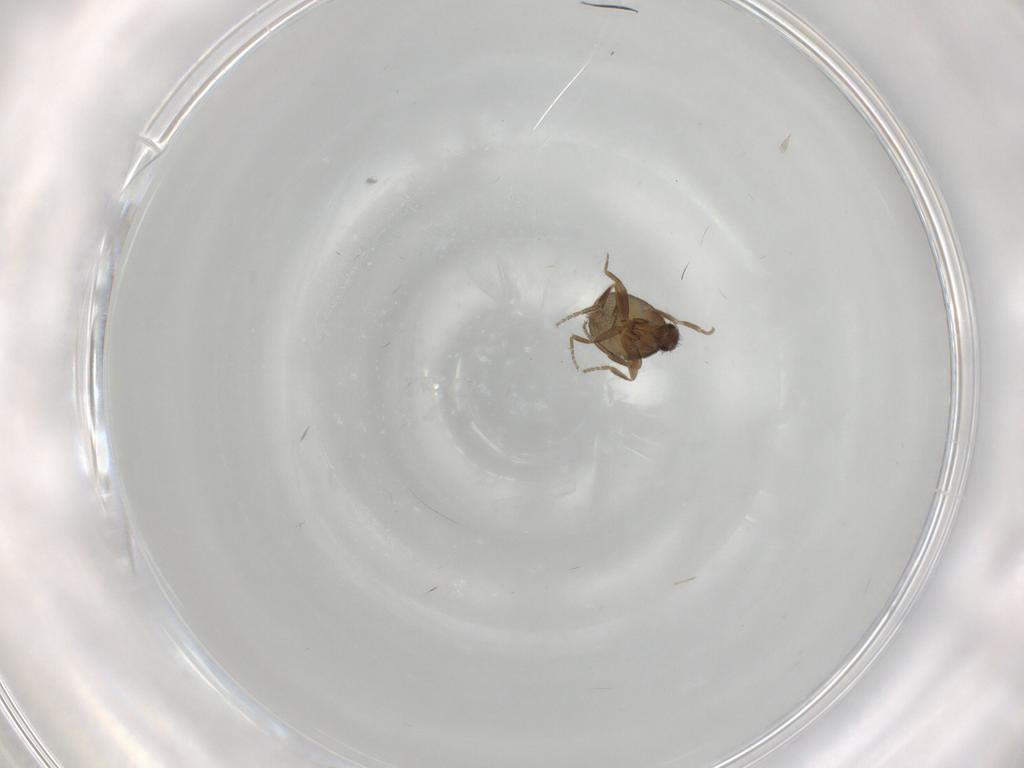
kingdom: Animalia
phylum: Arthropoda
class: Insecta
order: Diptera
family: Phoridae
